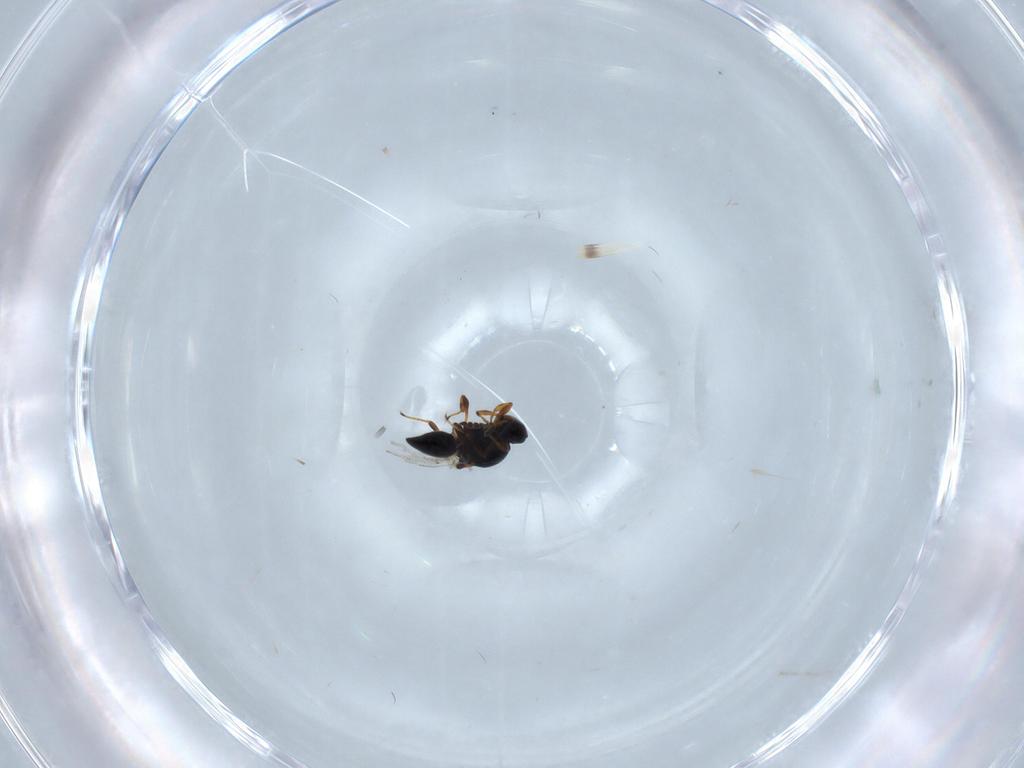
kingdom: Animalia
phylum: Arthropoda
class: Insecta
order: Hymenoptera
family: Platygastridae
